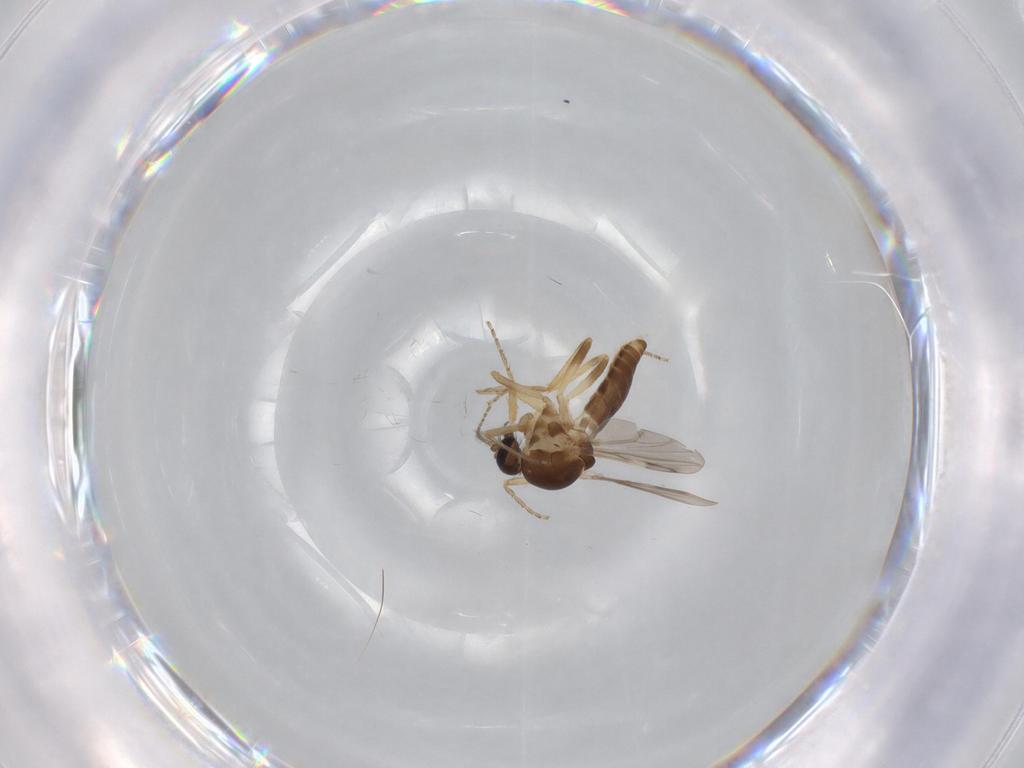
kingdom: Animalia
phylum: Arthropoda
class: Insecta
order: Diptera
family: Ceratopogonidae
